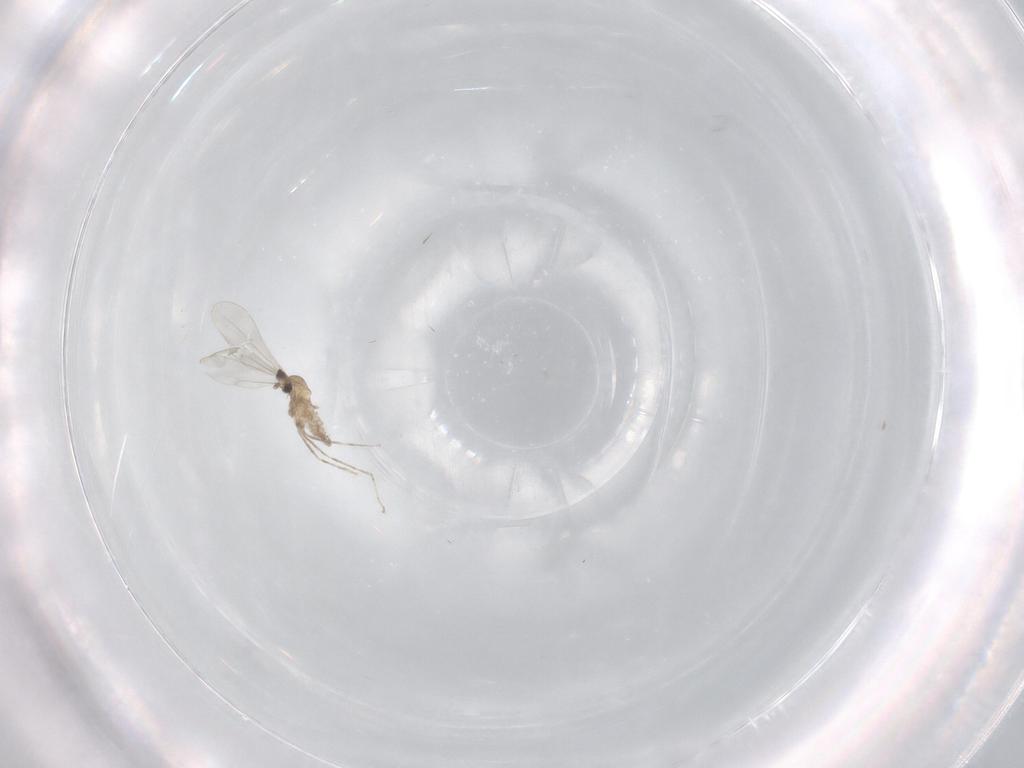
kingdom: Animalia
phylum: Arthropoda
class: Insecta
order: Diptera
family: Cecidomyiidae
